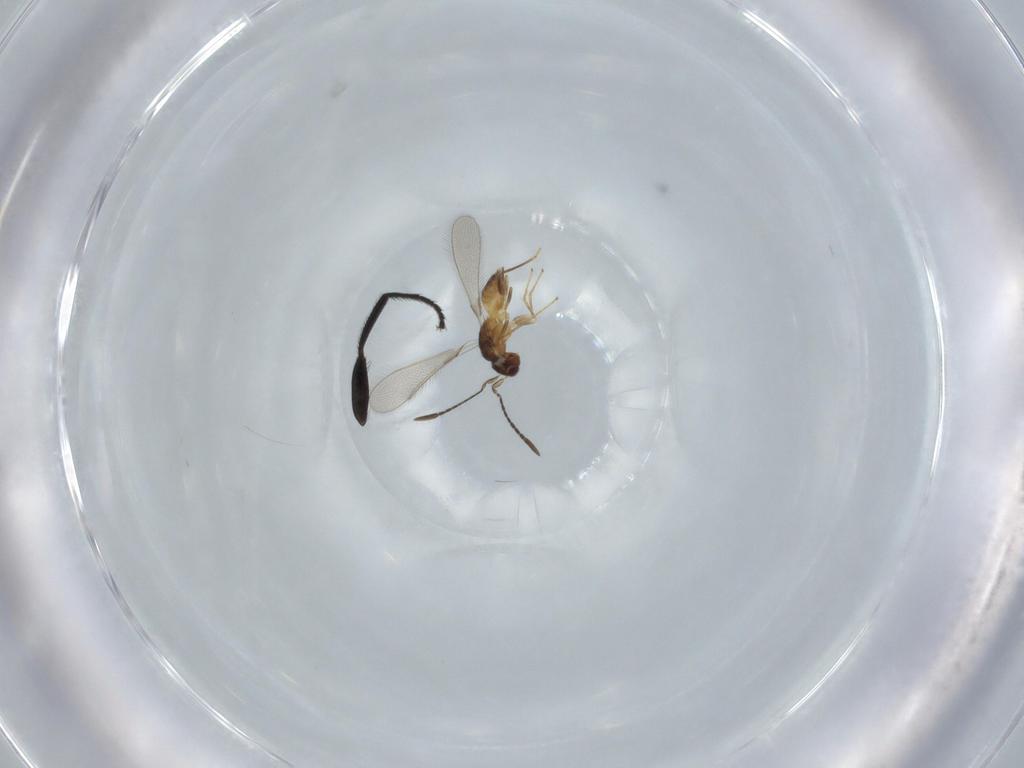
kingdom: Animalia
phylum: Arthropoda
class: Insecta
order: Hymenoptera
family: Mymaridae
